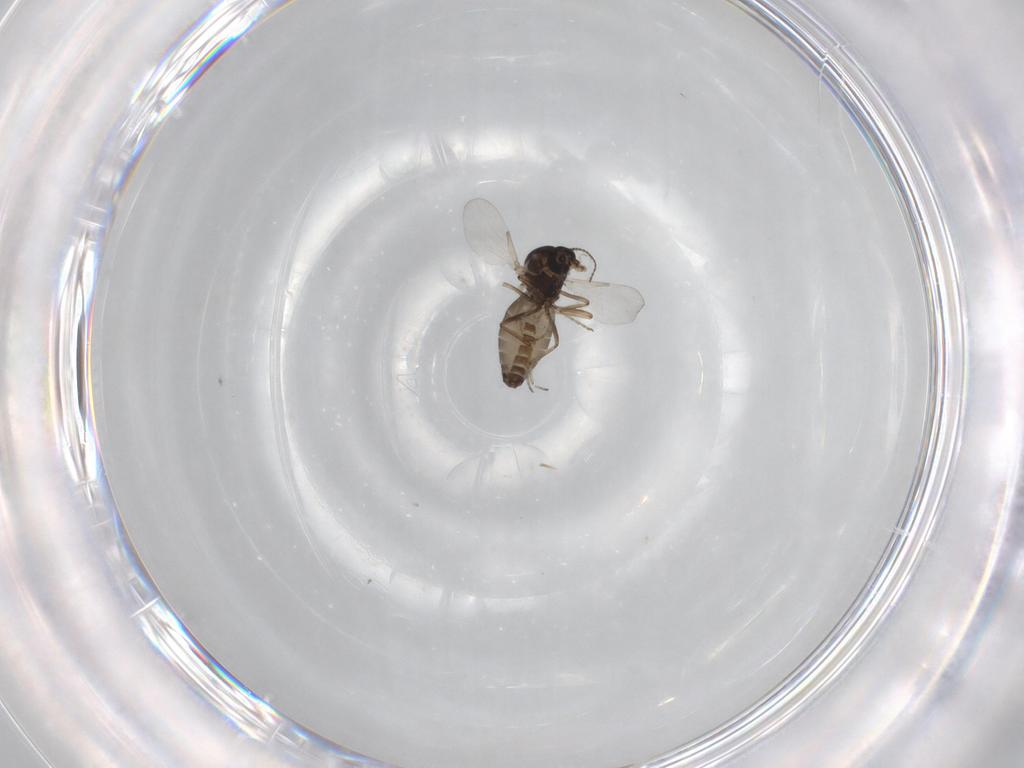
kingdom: Animalia
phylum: Arthropoda
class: Insecta
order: Diptera
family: Ceratopogonidae
